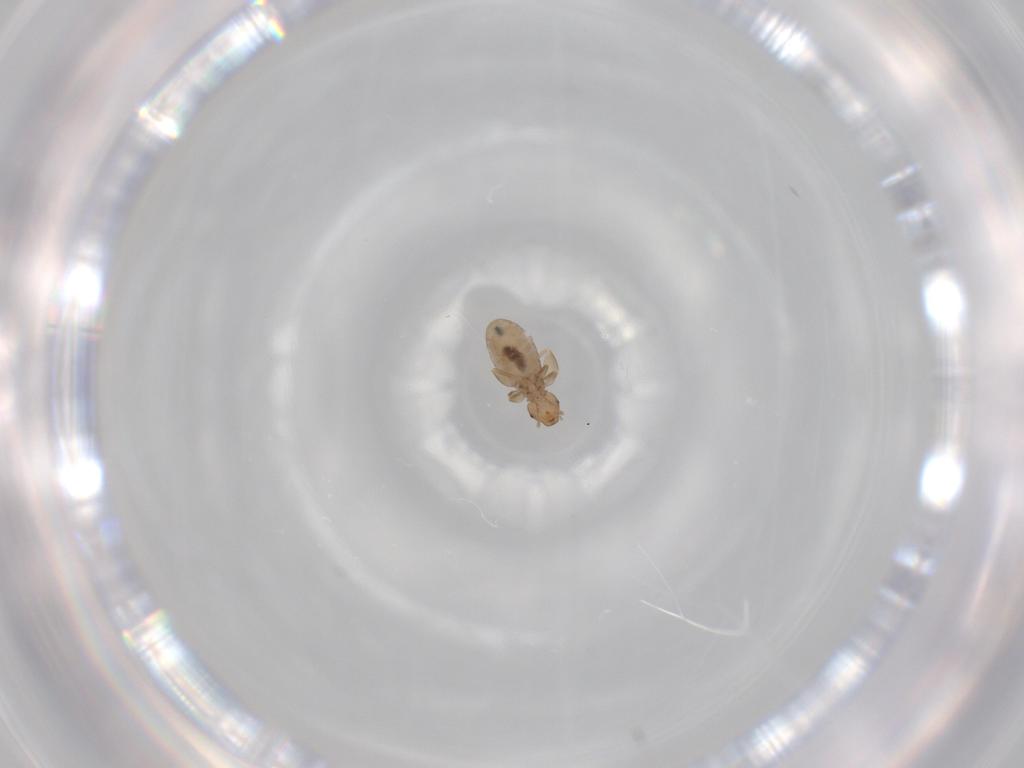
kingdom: Animalia
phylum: Arthropoda
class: Insecta
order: Psocodea
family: Liposcelididae
